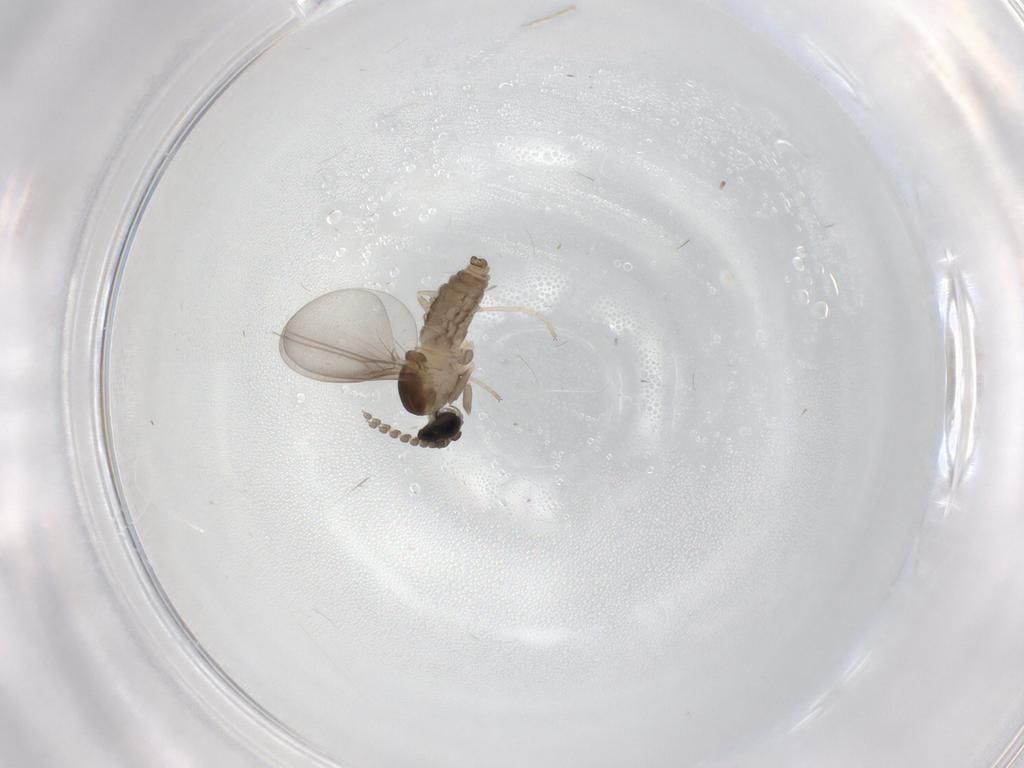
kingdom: Animalia
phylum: Arthropoda
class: Insecta
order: Diptera
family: Cecidomyiidae
